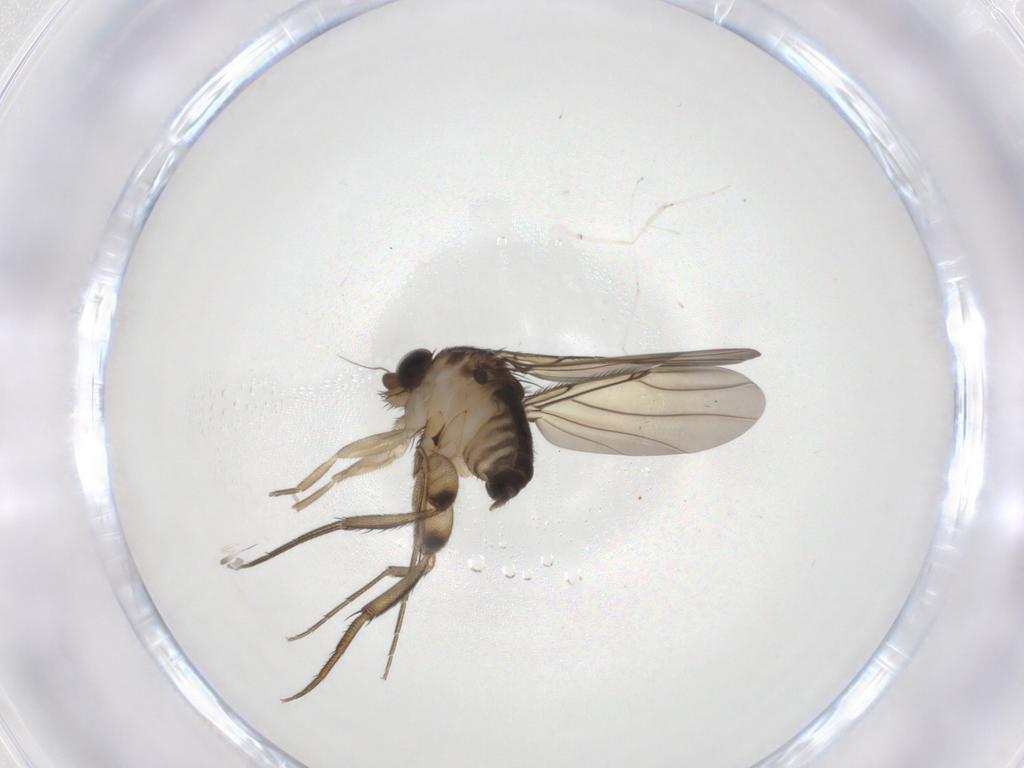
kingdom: Animalia
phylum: Arthropoda
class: Insecta
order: Diptera
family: Cecidomyiidae
